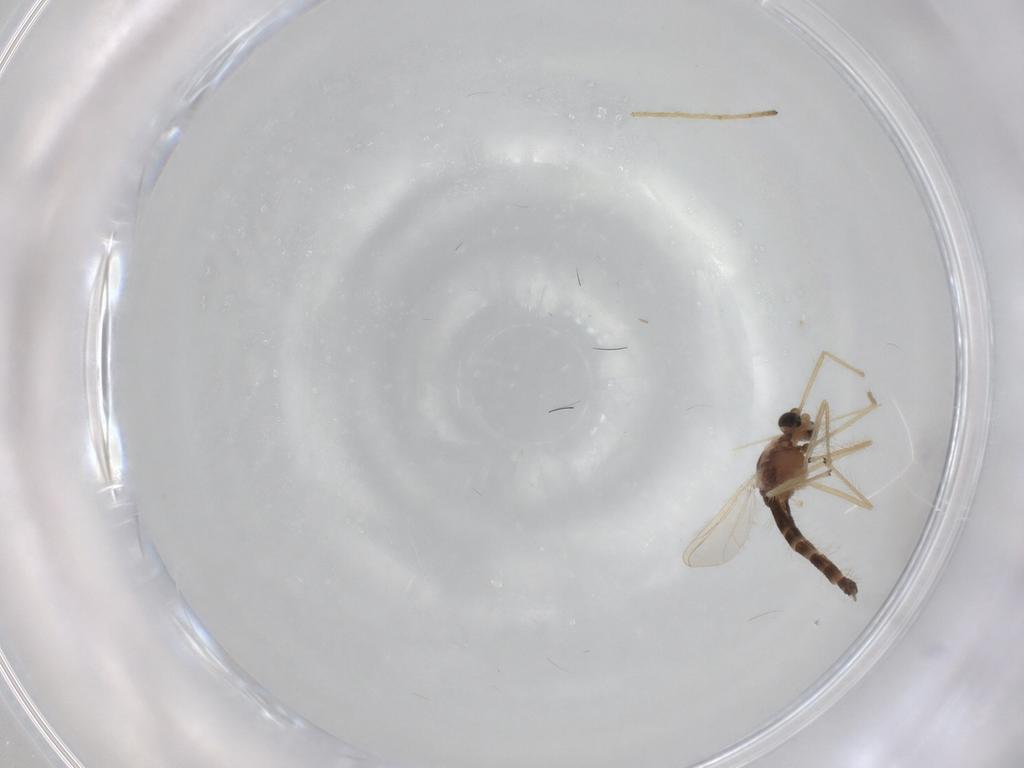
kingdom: Animalia
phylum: Arthropoda
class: Insecta
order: Diptera
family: Chironomidae
